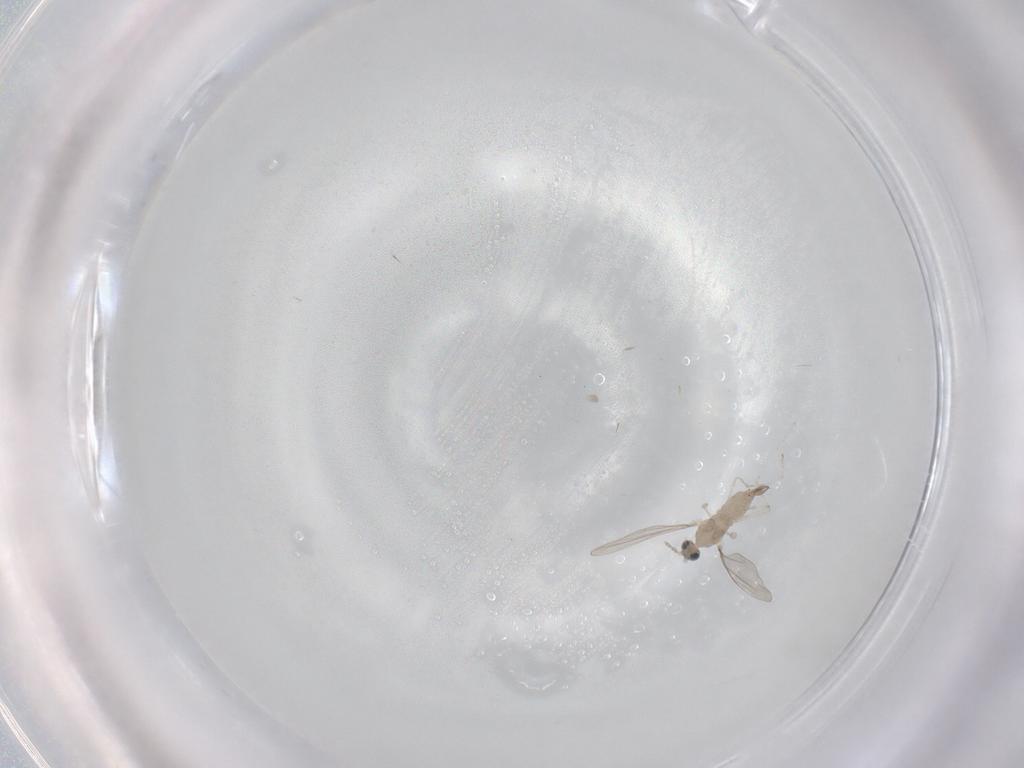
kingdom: Animalia
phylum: Arthropoda
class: Insecta
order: Diptera
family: Cecidomyiidae
